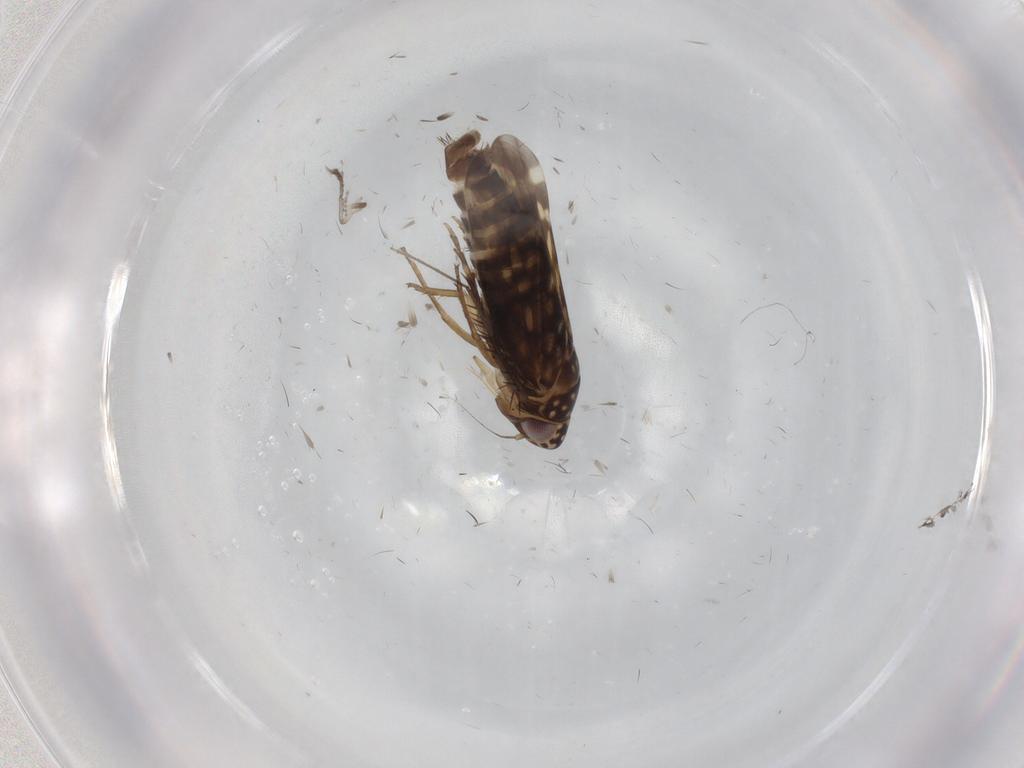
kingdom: Animalia
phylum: Arthropoda
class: Insecta
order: Hemiptera
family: Cicadellidae
